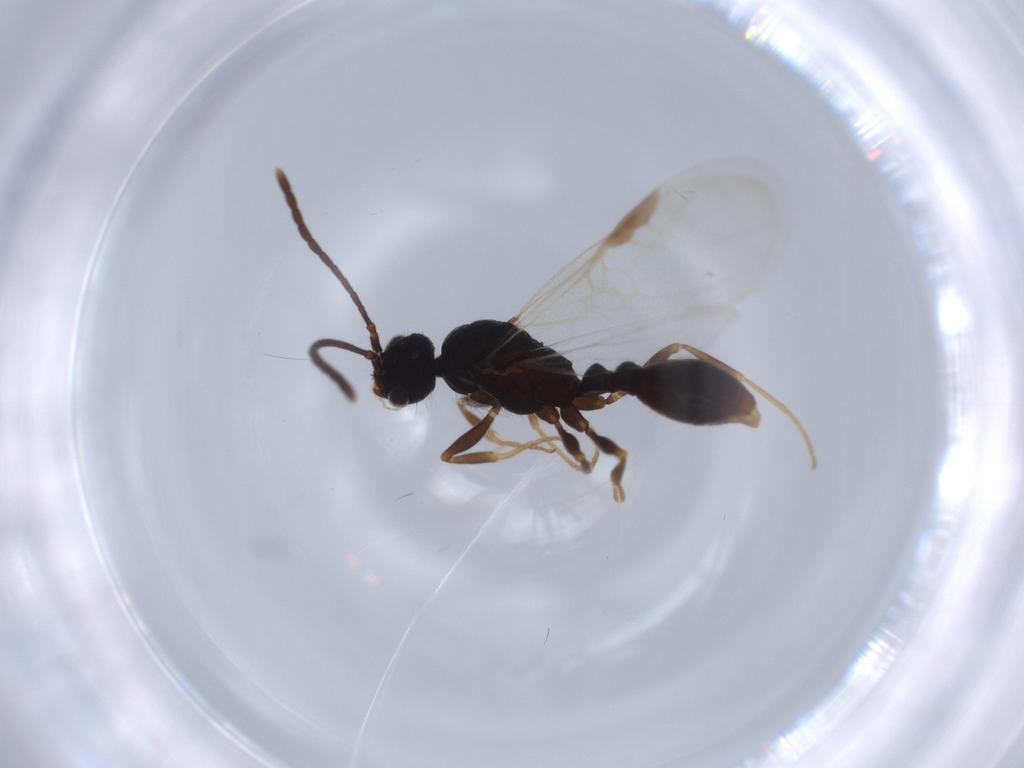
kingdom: Animalia
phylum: Arthropoda
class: Insecta
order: Hymenoptera
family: Formicidae
